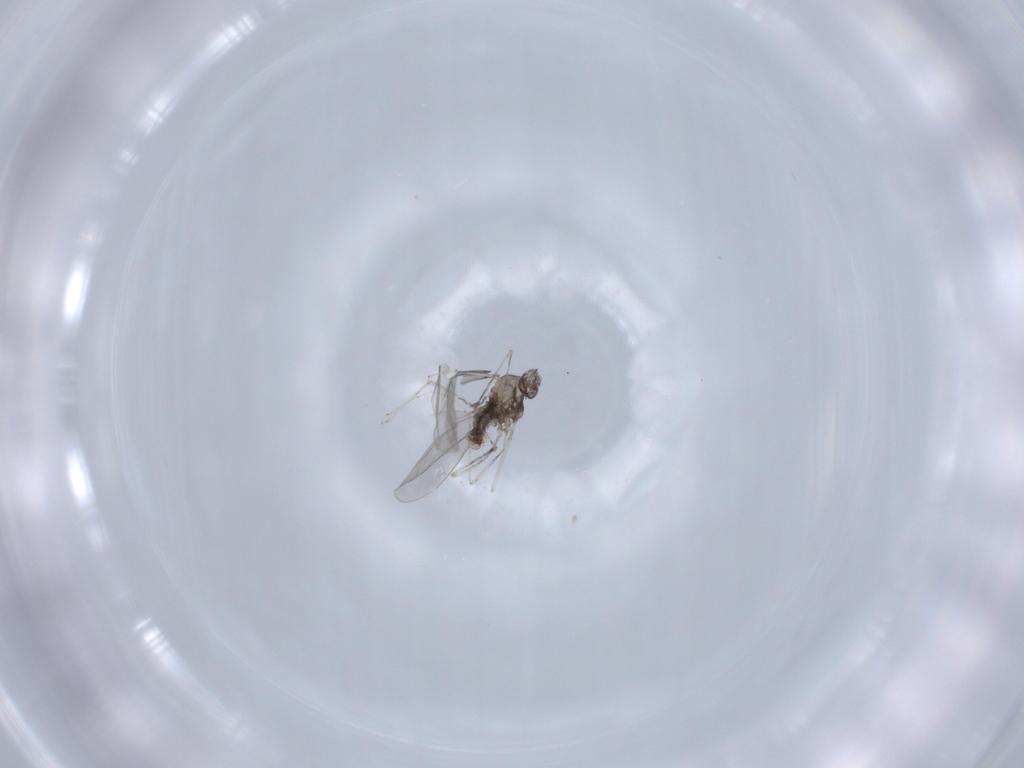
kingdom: Animalia
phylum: Arthropoda
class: Insecta
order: Diptera
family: Cecidomyiidae
